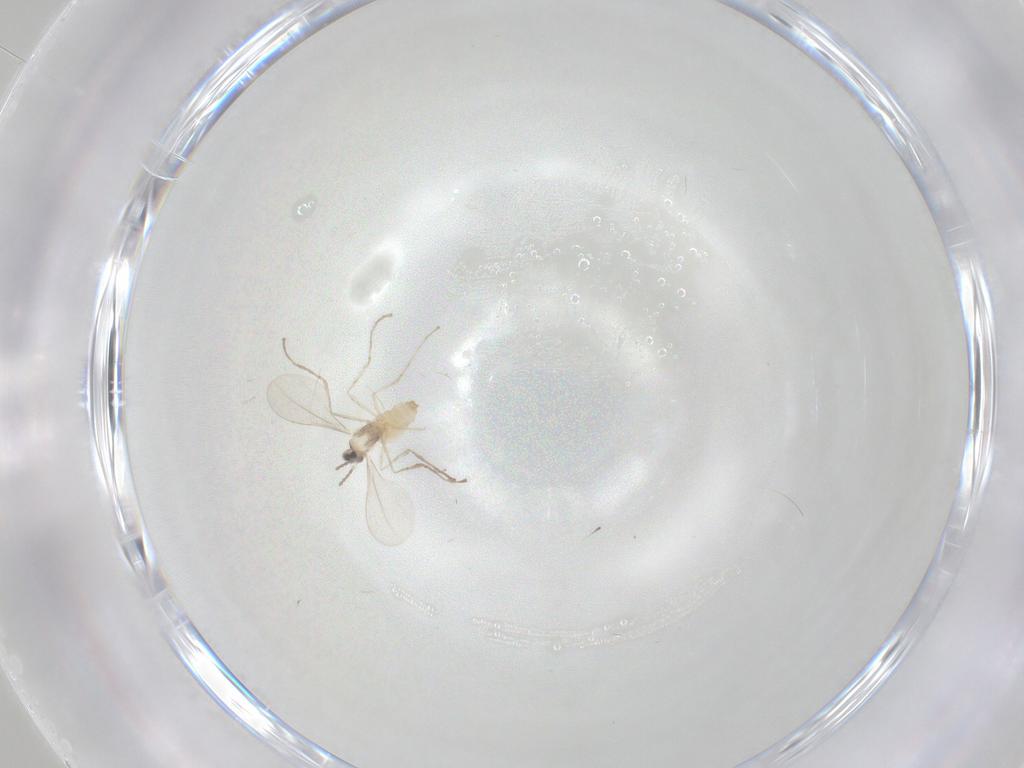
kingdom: Animalia
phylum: Arthropoda
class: Insecta
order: Diptera
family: Cecidomyiidae
